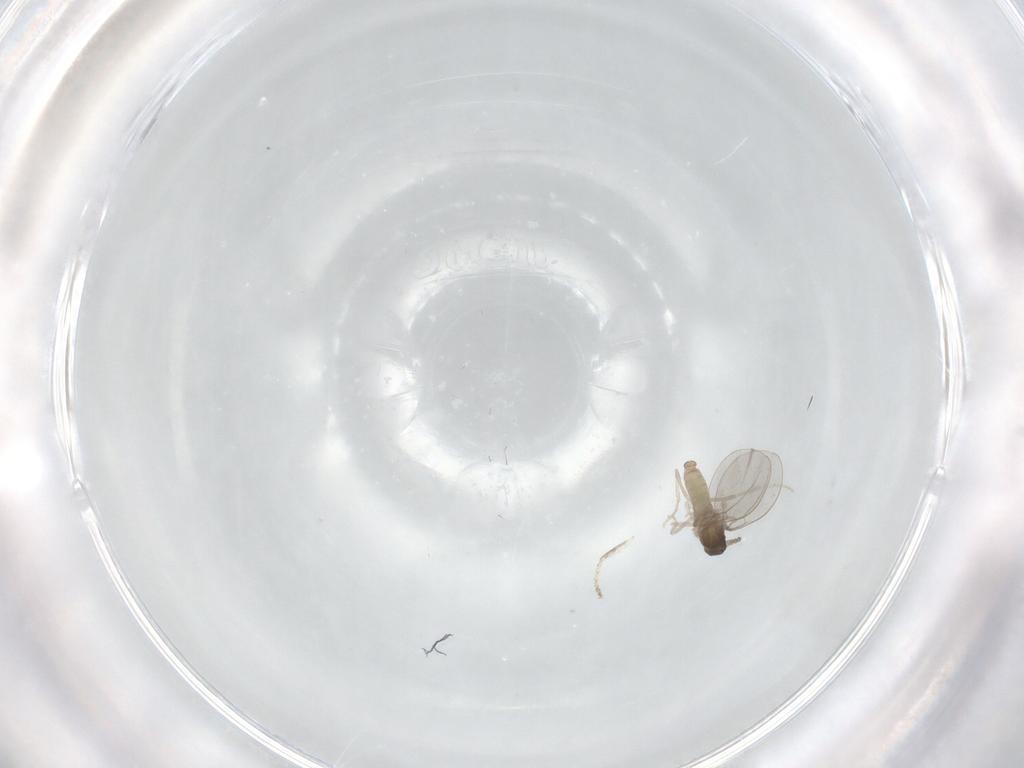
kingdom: Animalia
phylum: Arthropoda
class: Insecta
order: Diptera
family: Cecidomyiidae
